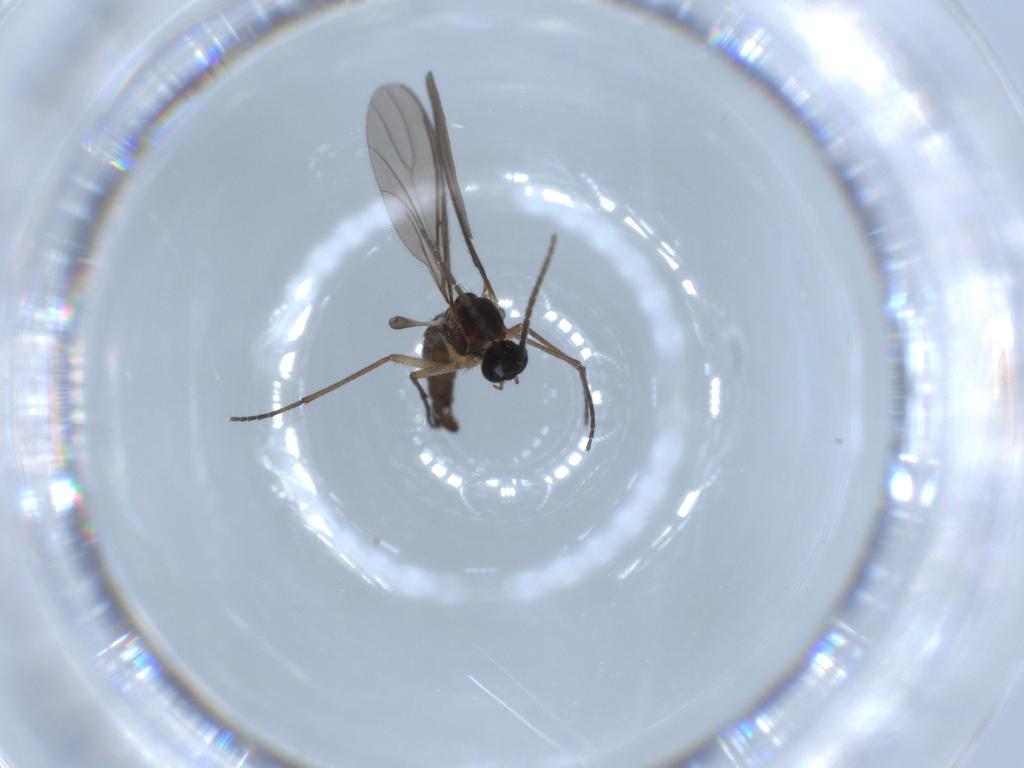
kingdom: Animalia
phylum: Arthropoda
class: Insecta
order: Diptera
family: Sciaridae
